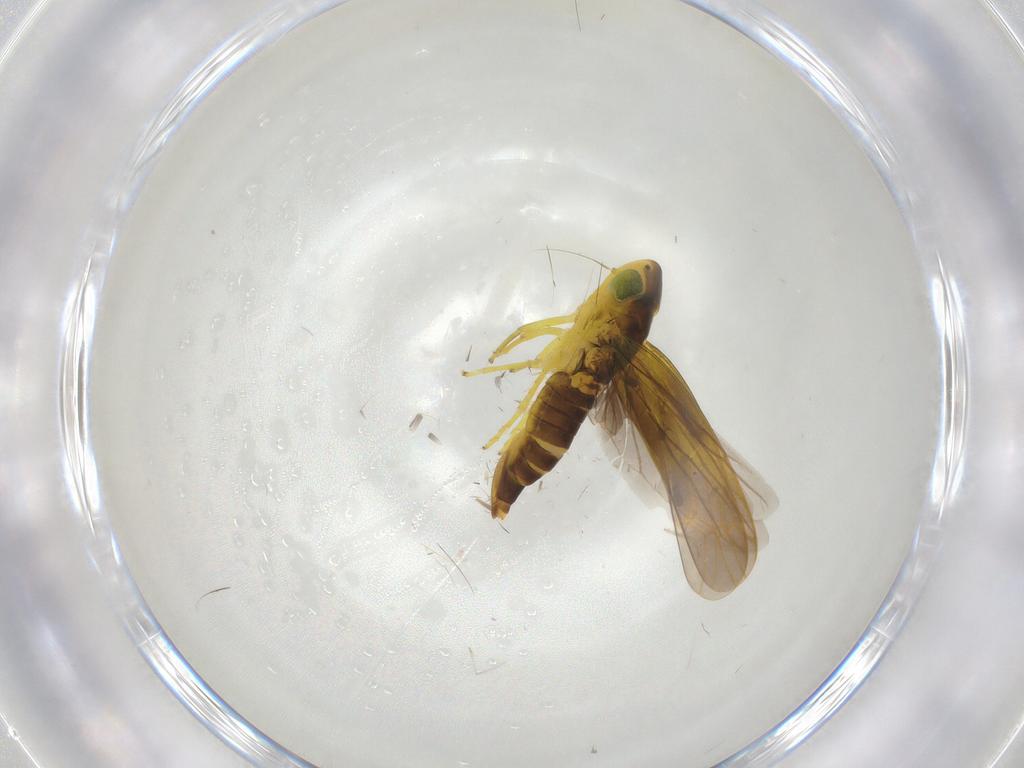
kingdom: Animalia
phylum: Arthropoda
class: Insecta
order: Hemiptera
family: Cicadellidae
